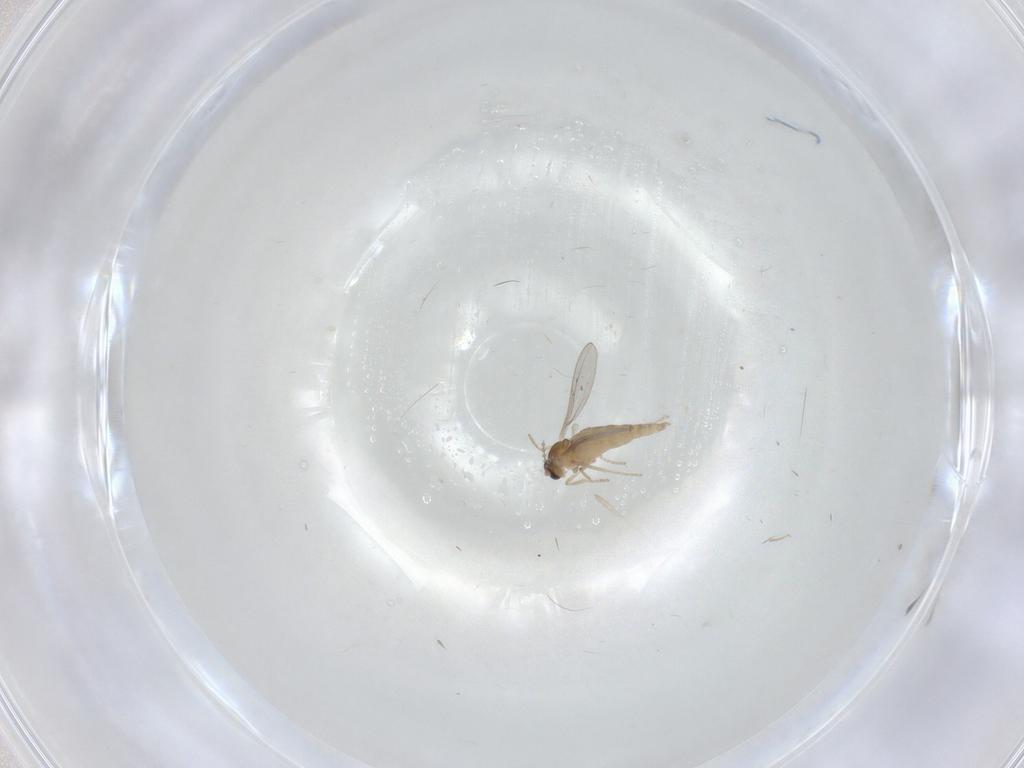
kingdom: Animalia
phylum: Arthropoda
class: Insecta
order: Diptera
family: Cecidomyiidae
